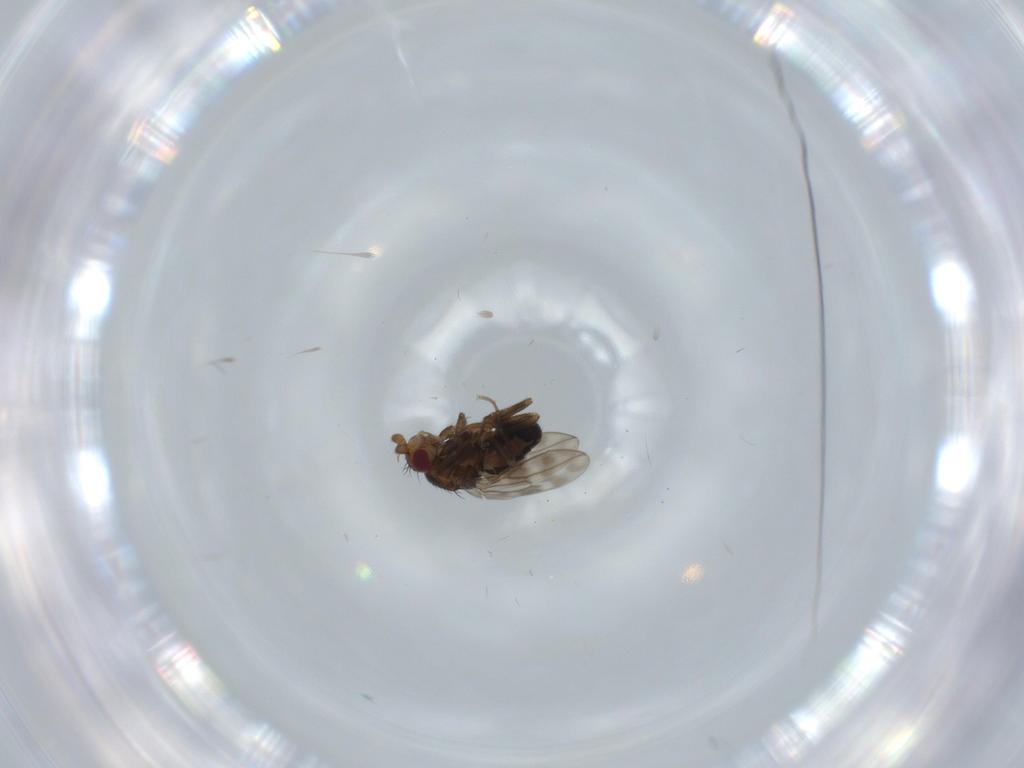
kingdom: Animalia
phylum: Arthropoda
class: Insecta
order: Diptera
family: Sphaeroceridae
